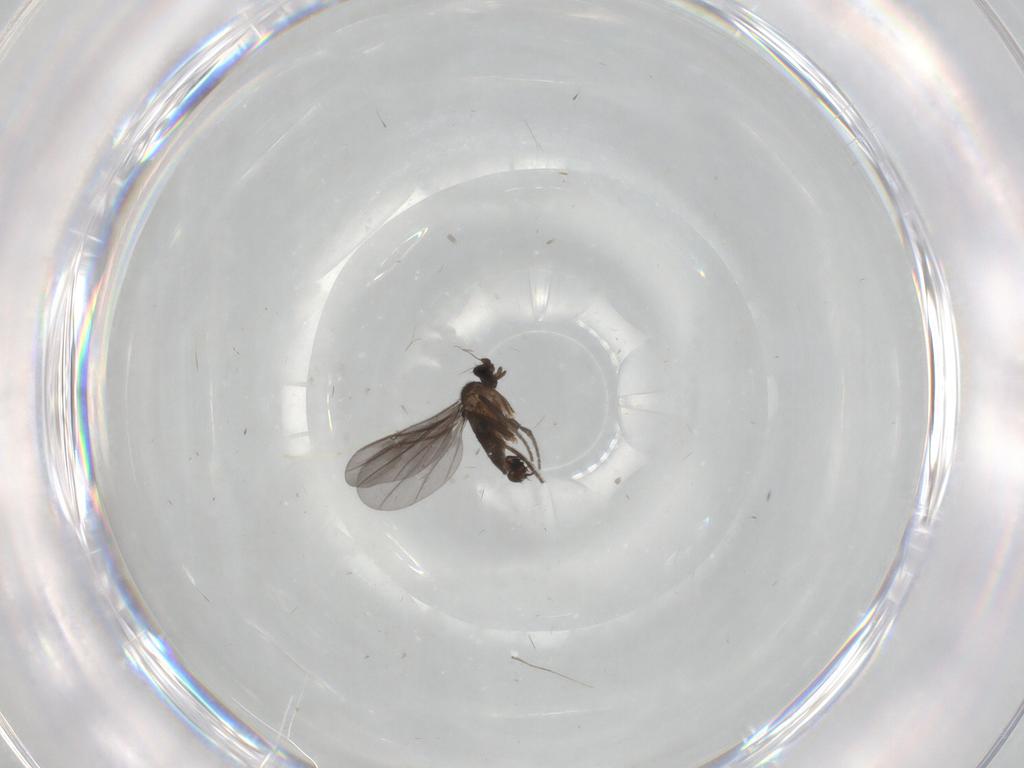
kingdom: Animalia
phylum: Arthropoda
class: Insecta
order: Diptera
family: Phoridae
